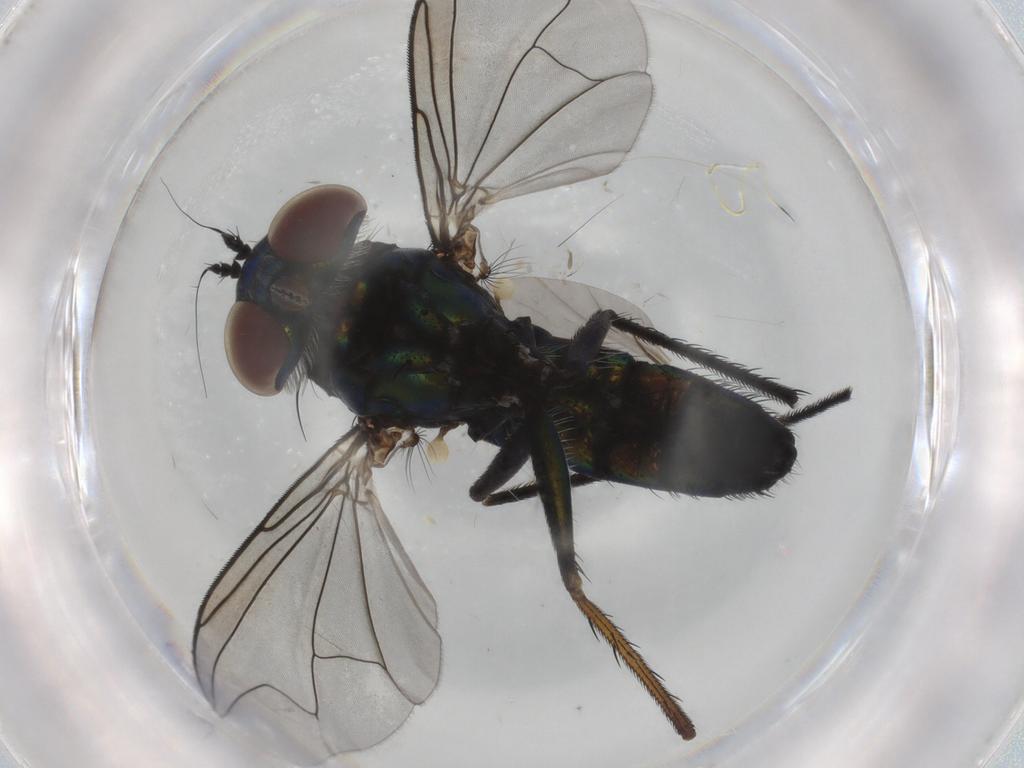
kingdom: Animalia
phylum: Arthropoda
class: Insecta
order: Diptera
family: Dolichopodidae
